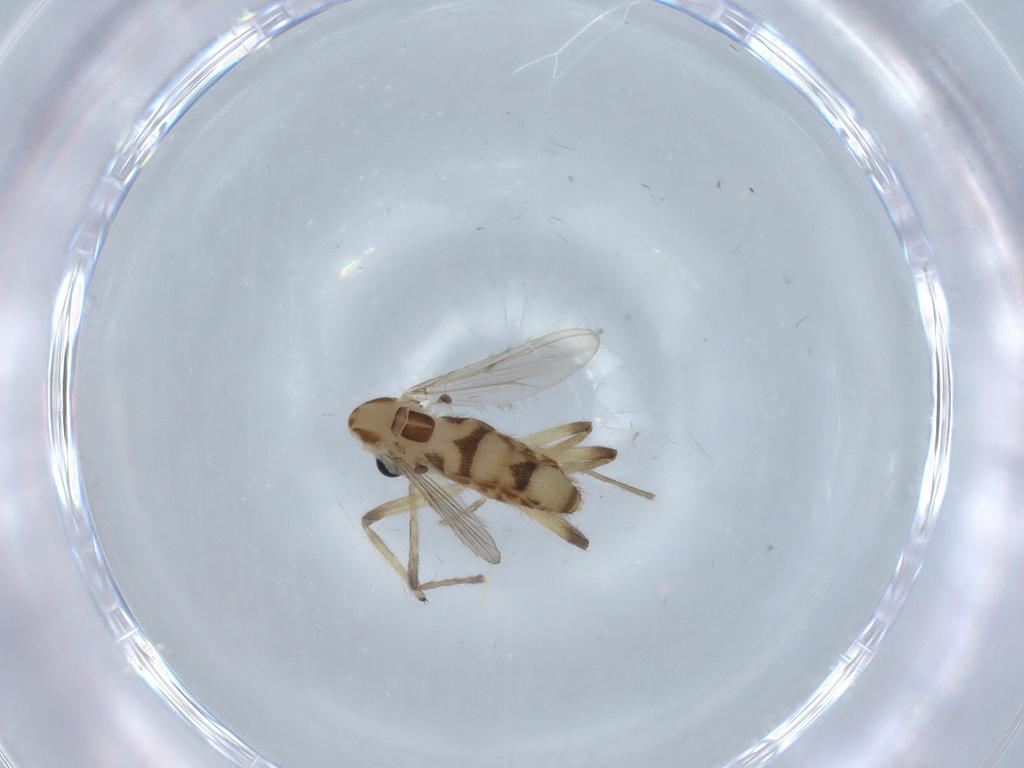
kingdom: Animalia
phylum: Arthropoda
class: Insecta
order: Diptera
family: Chironomidae
